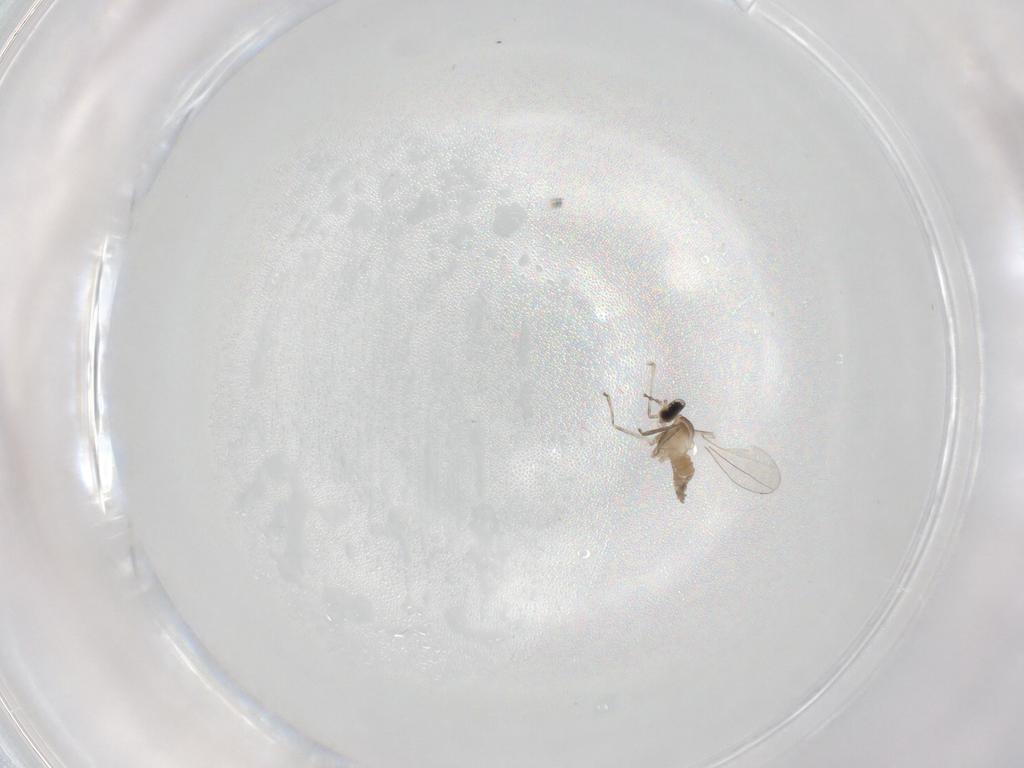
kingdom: Animalia
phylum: Arthropoda
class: Insecta
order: Diptera
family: Cecidomyiidae
